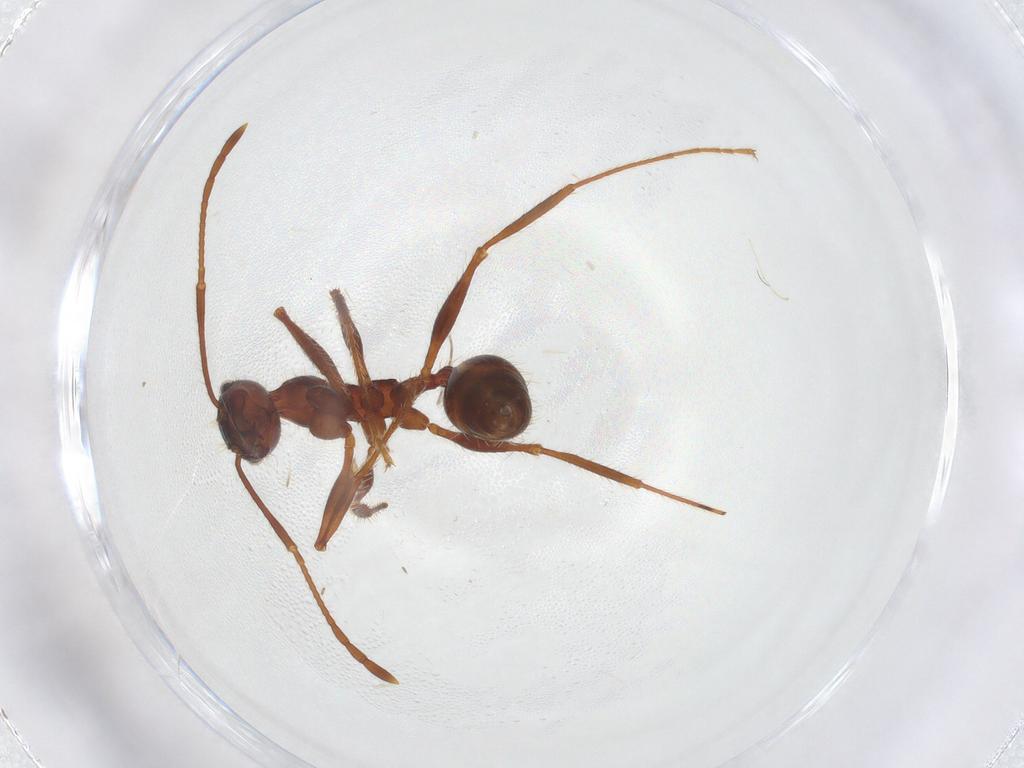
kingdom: Animalia
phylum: Arthropoda
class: Insecta
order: Hymenoptera
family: Formicidae
